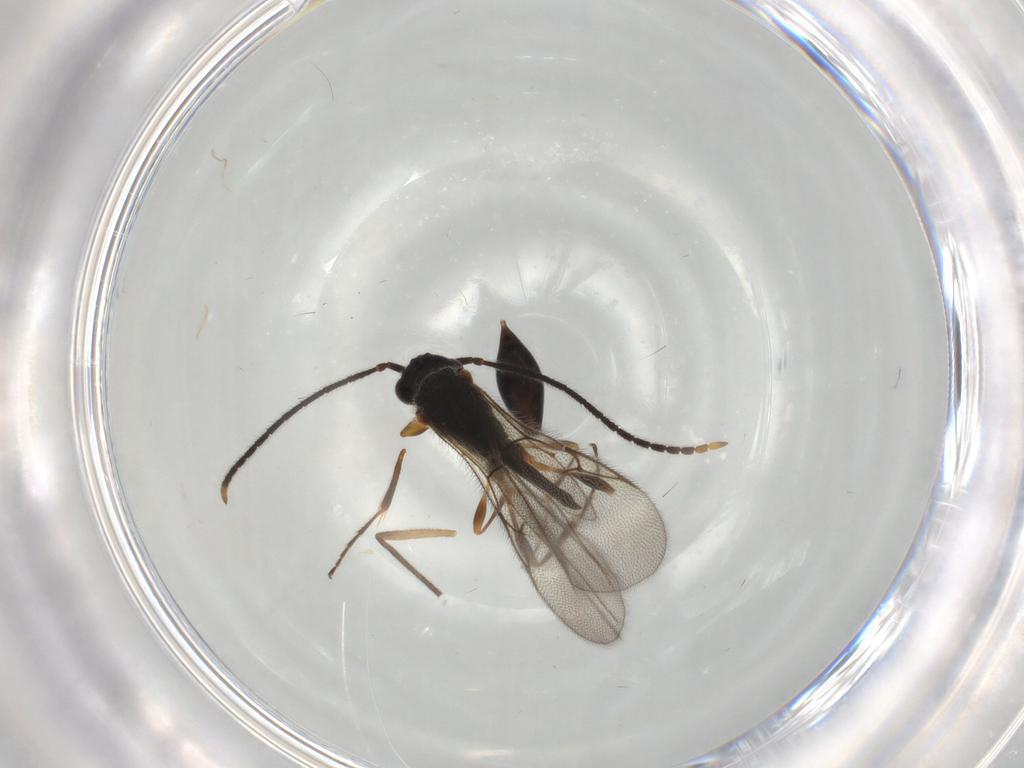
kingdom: Animalia
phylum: Arthropoda
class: Insecta
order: Hymenoptera
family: Diapriidae
